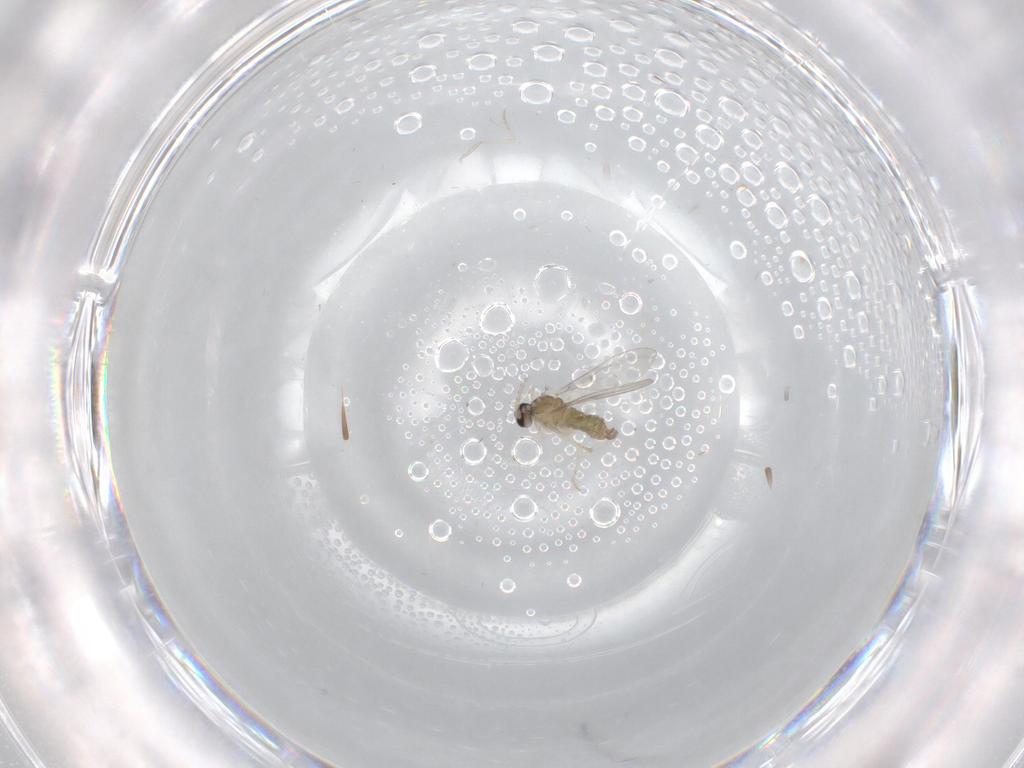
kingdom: Animalia
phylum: Arthropoda
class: Insecta
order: Diptera
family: Cecidomyiidae
